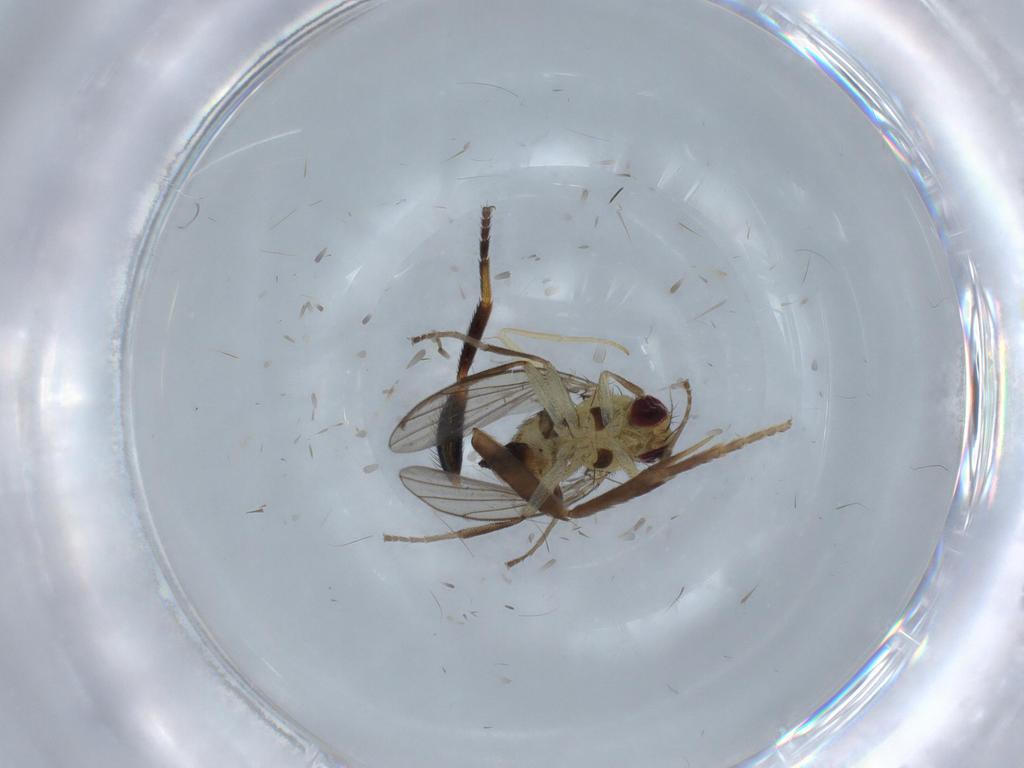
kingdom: Animalia
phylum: Arthropoda
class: Insecta
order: Diptera
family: Agromyzidae
